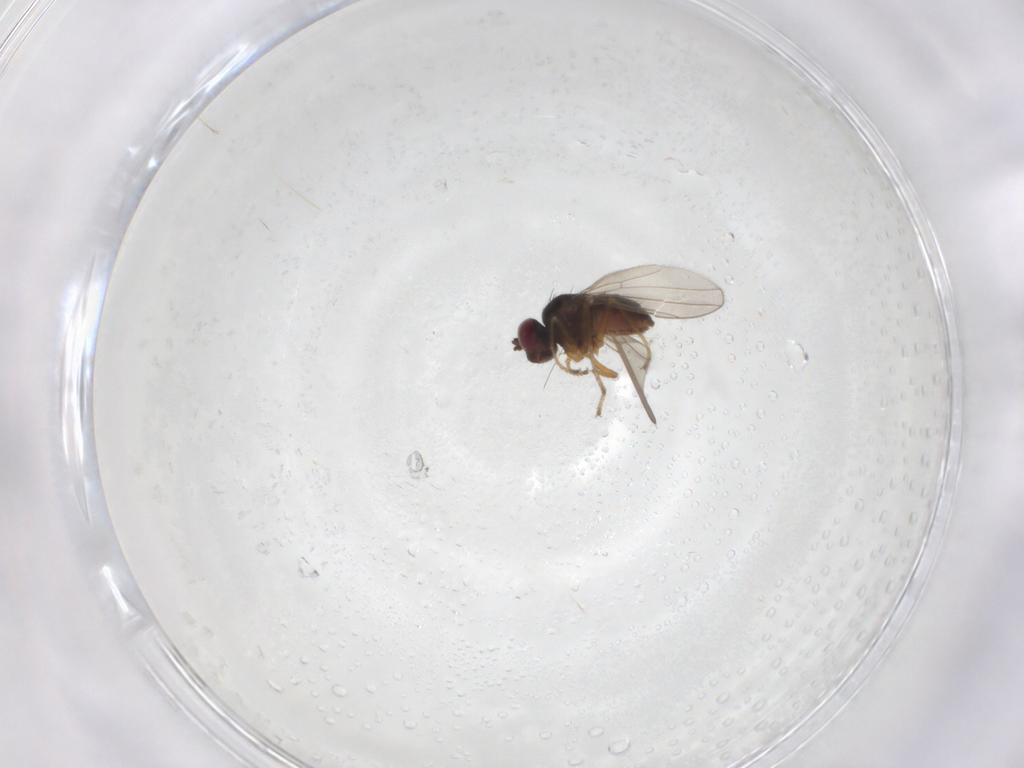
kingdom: Animalia
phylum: Arthropoda
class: Insecta
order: Diptera
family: Ephydridae
